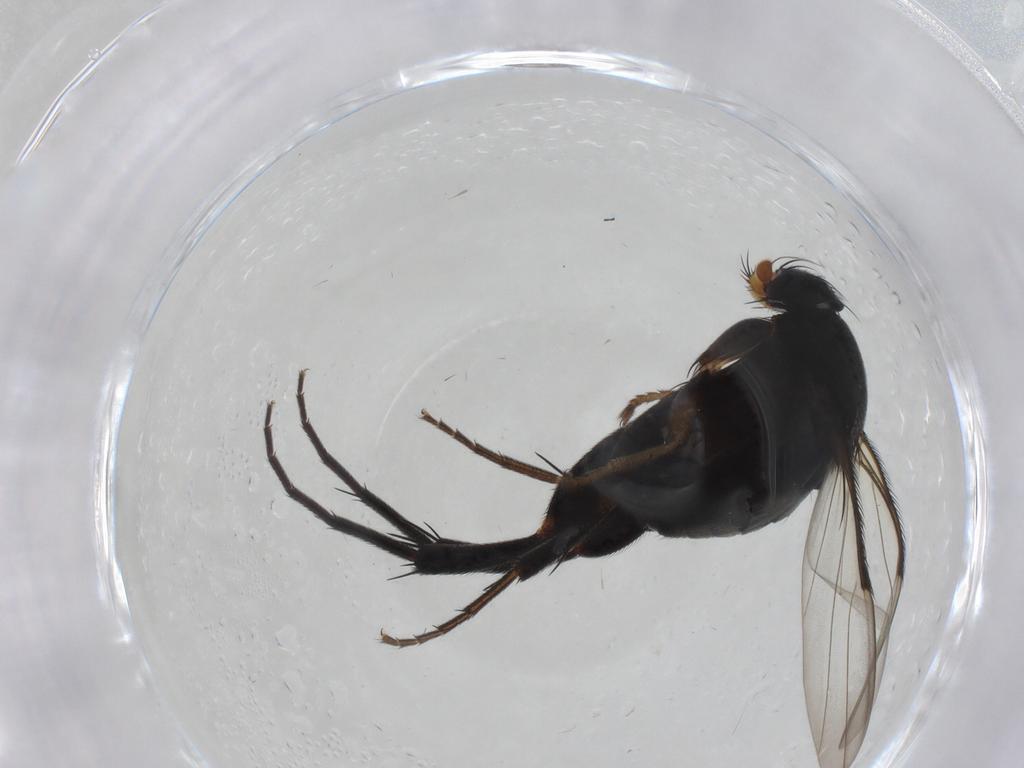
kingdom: Animalia
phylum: Arthropoda
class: Insecta
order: Diptera
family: Phoridae
